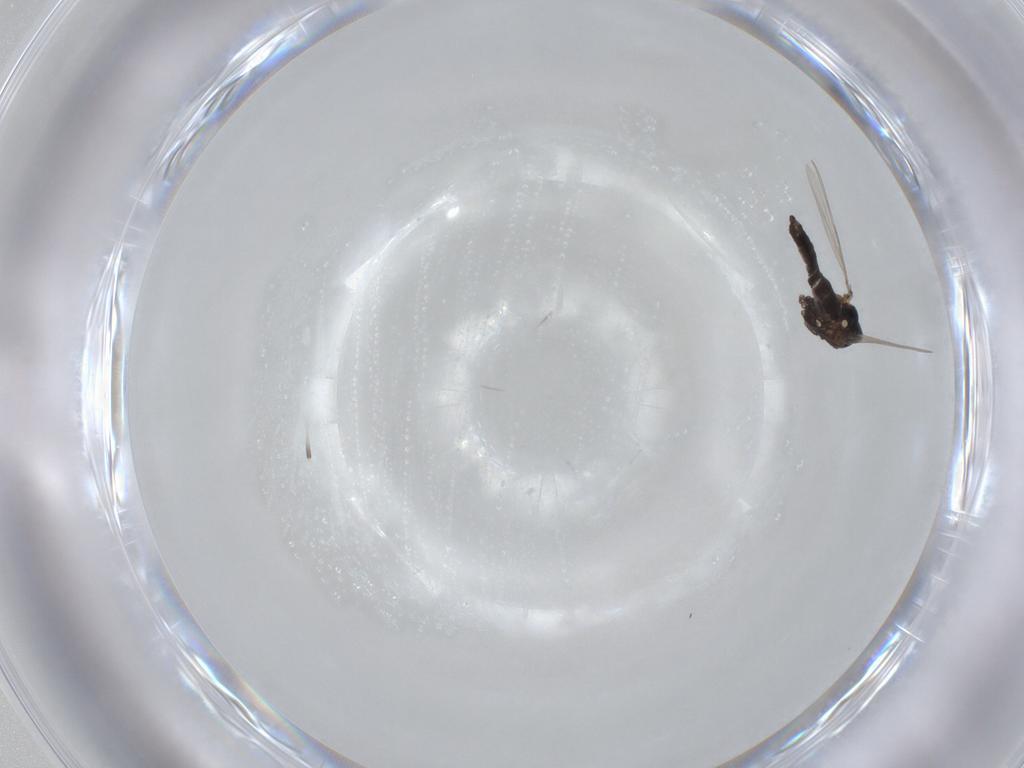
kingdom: Animalia
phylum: Arthropoda
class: Insecta
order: Diptera
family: Ceratopogonidae
